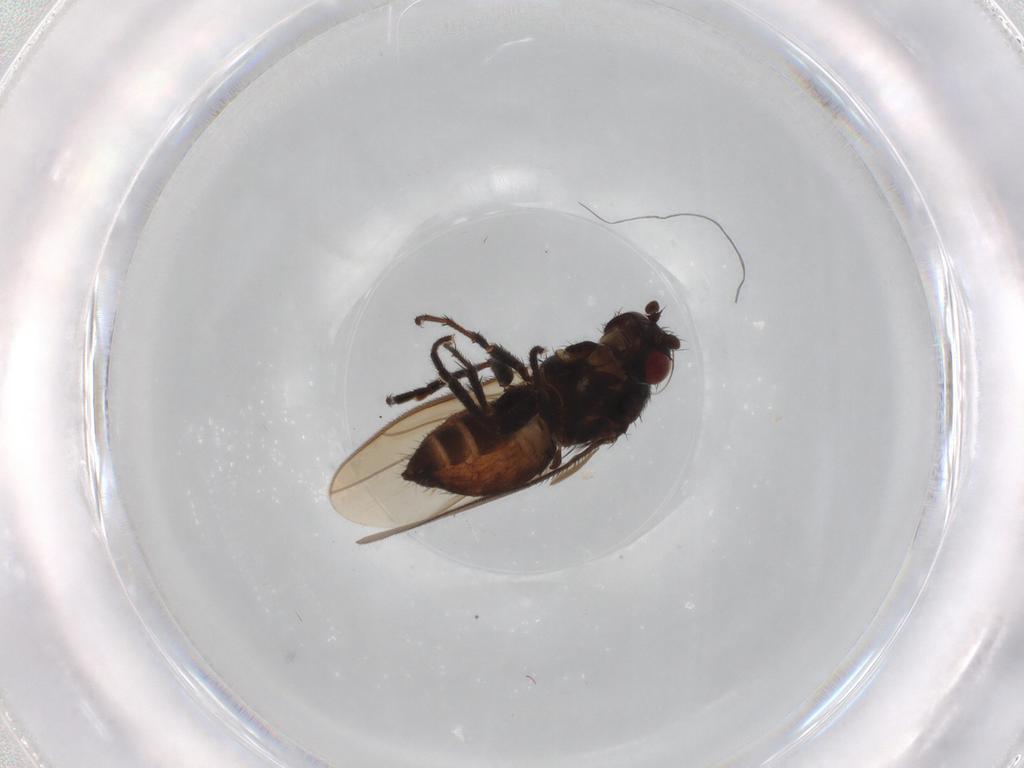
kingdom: Animalia
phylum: Arthropoda
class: Insecta
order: Diptera
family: Sphaeroceridae
